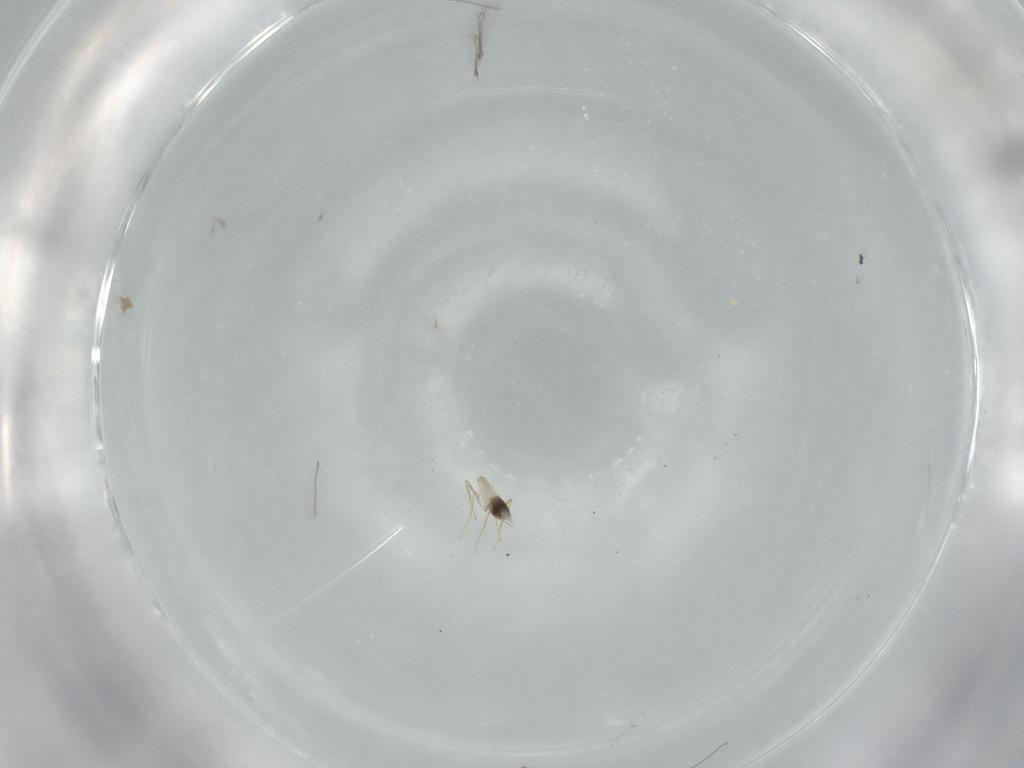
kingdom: Animalia
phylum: Arthropoda
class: Insecta
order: Hymenoptera
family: Mymaridae
